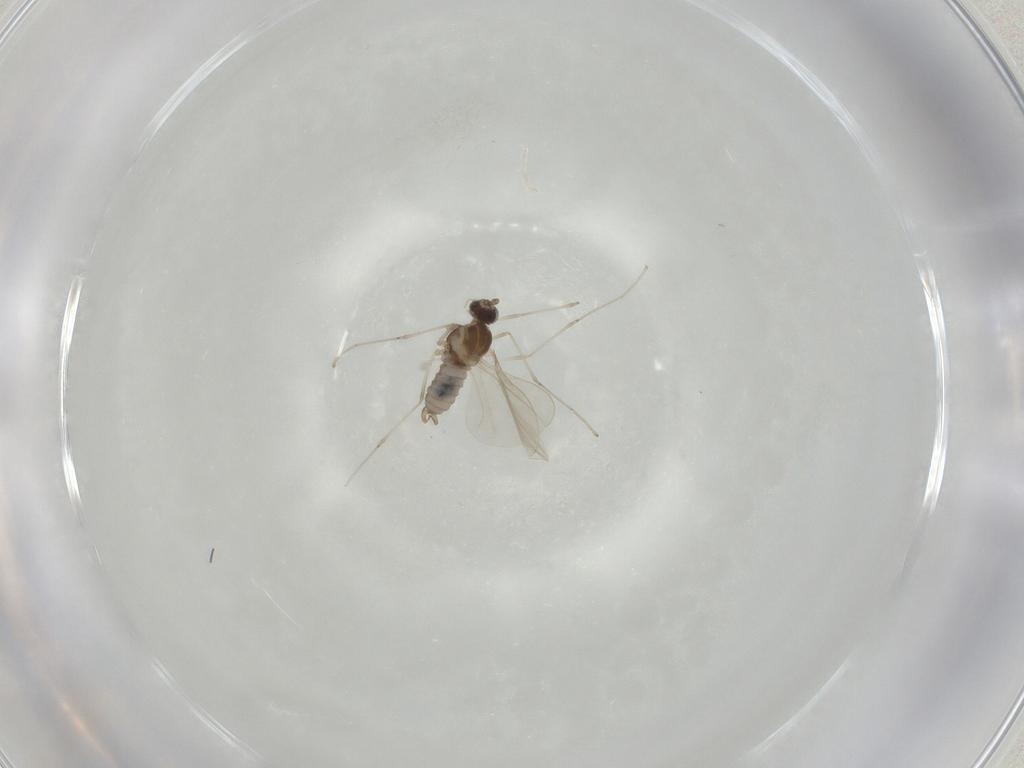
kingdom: Animalia
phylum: Arthropoda
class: Insecta
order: Diptera
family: Cecidomyiidae
